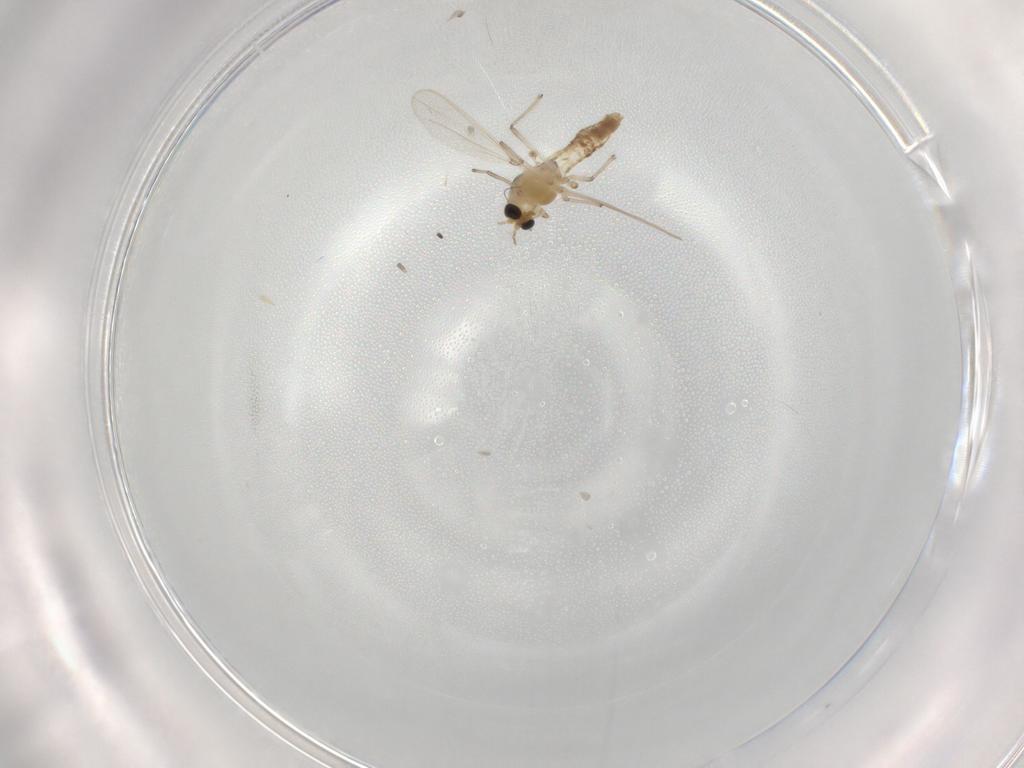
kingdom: Animalia
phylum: Arthropoda
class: Insecta
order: Diptera
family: Chironomidae
